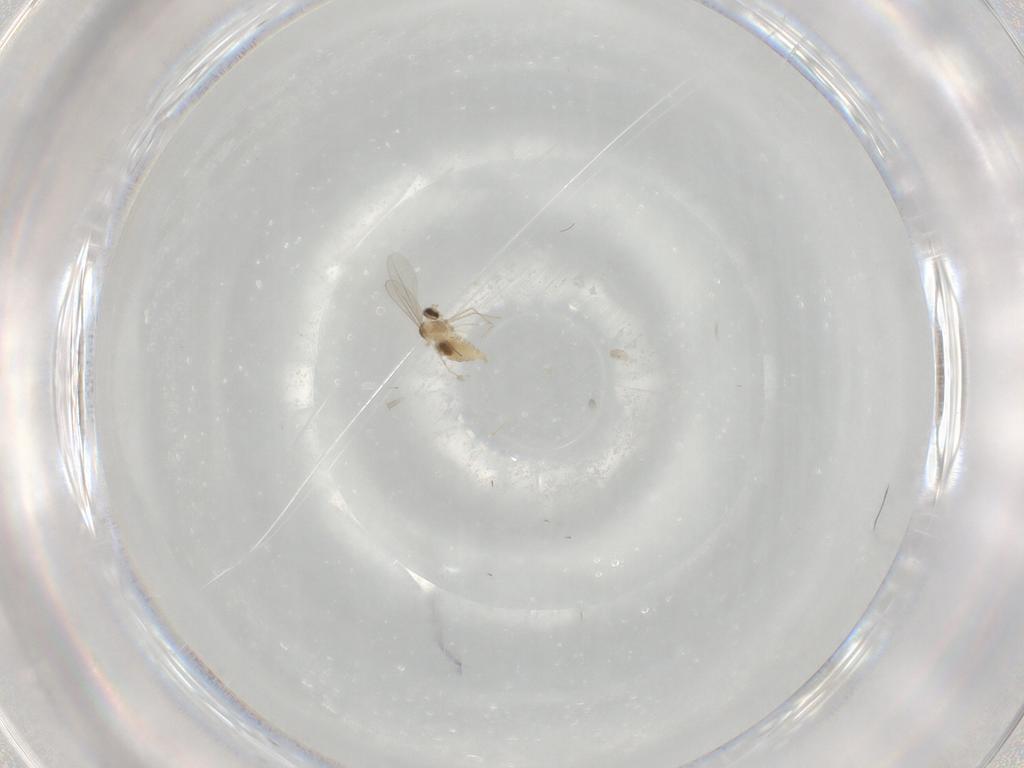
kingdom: Animalia
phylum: Arthropoda
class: Insecta
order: Diptera
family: Cecidomyiidae
